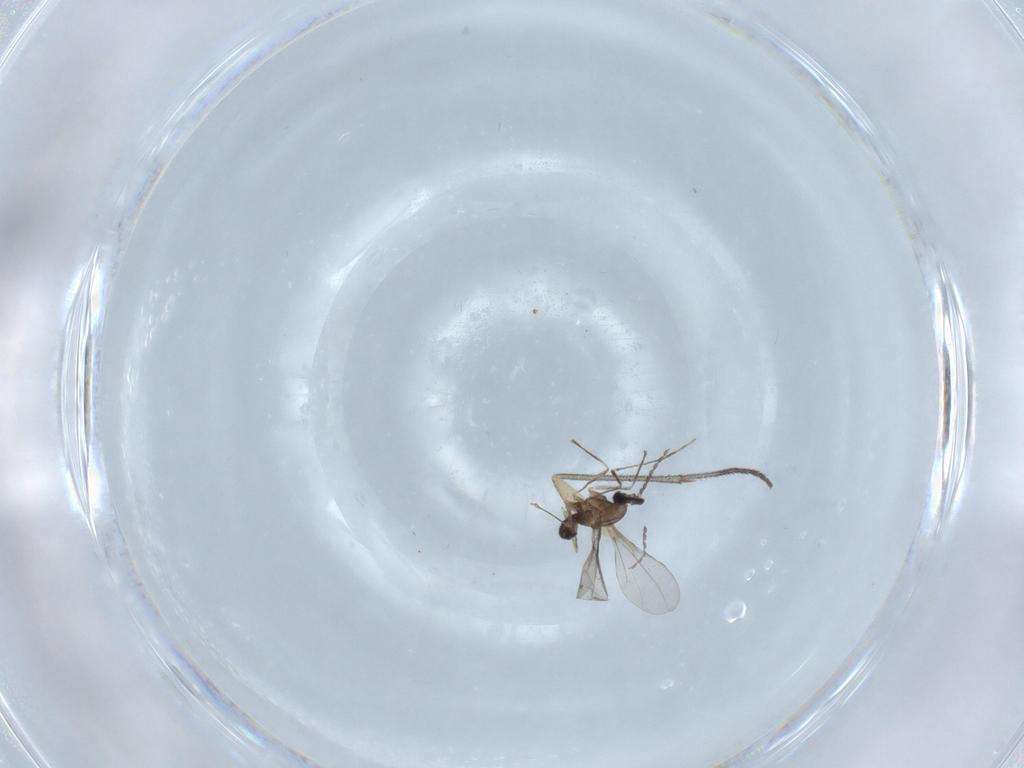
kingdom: Animalia
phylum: Arthropoda
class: Insecta
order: Diptera
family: Cecidomyiidae
